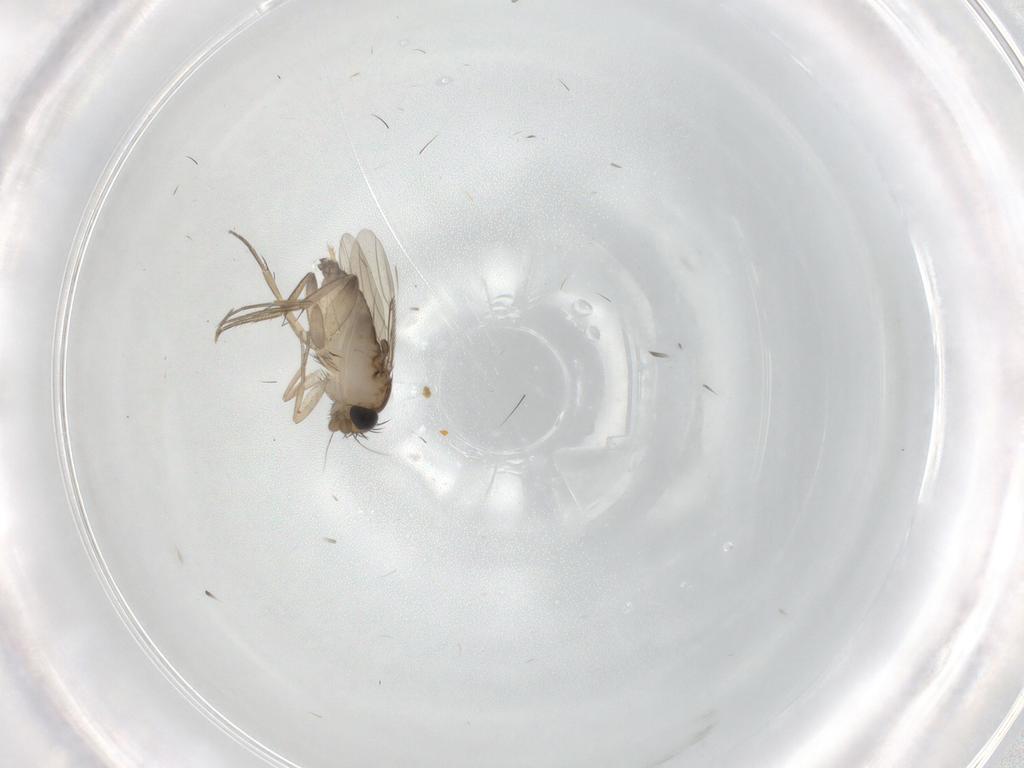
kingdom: Animalia
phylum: Arthropoda
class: Insecta
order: Diptera
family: Phoridae
